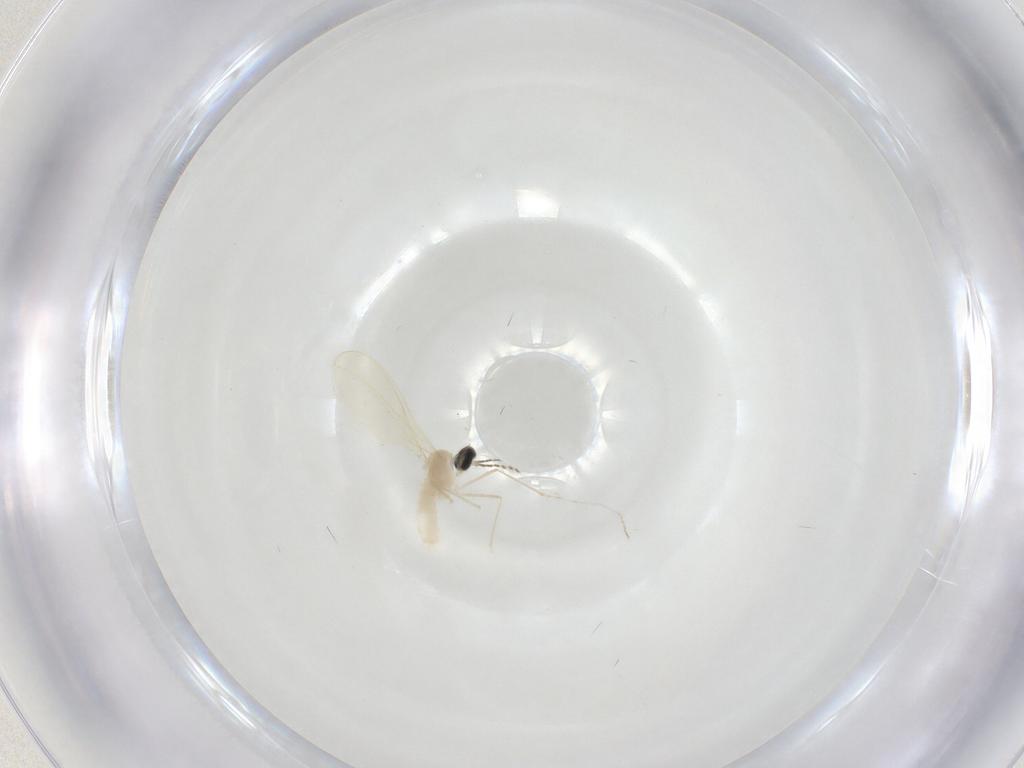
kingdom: Animalia
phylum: Arthropoda
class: Insecta
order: Diptera
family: Cecidomyiidae
